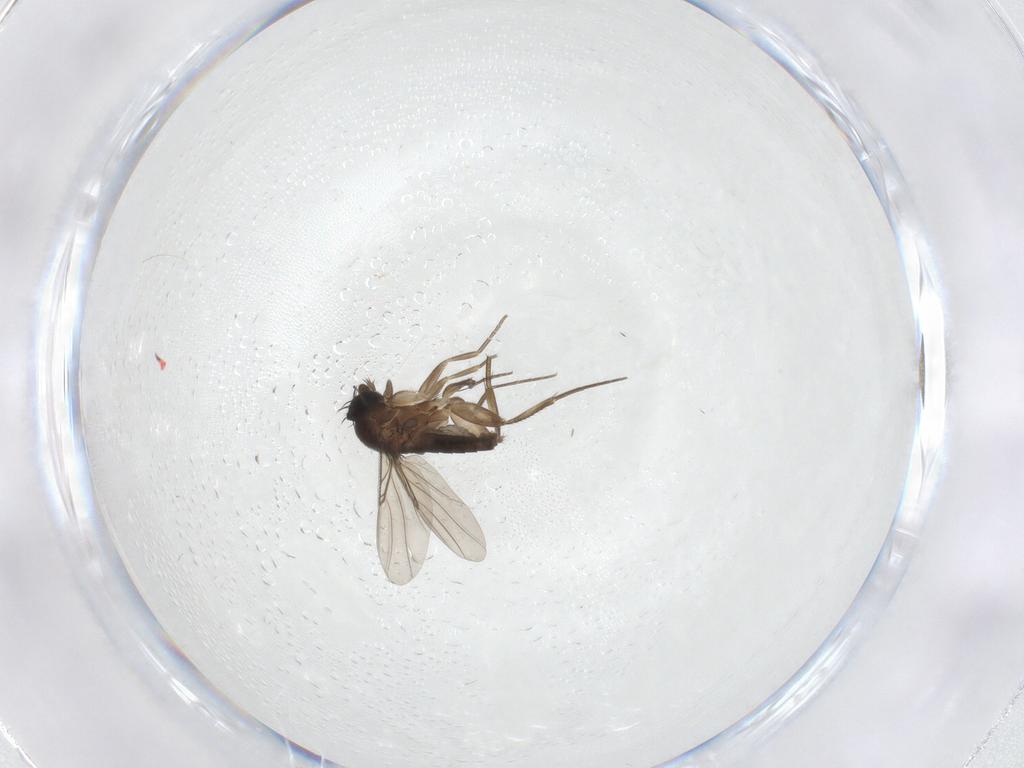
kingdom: Animalia
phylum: Arthropoda
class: Insecta
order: Diptera
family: Phoridae
